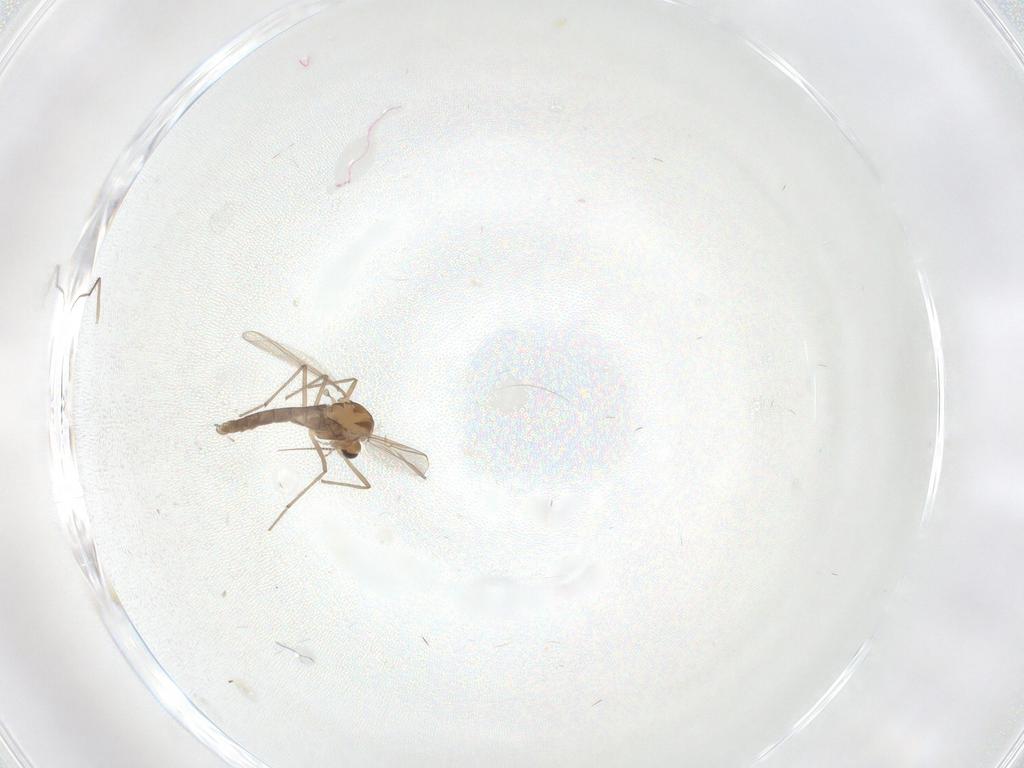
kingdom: Animalia
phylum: Arthropoda
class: Insecta
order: Diptera
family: Chironomidae
